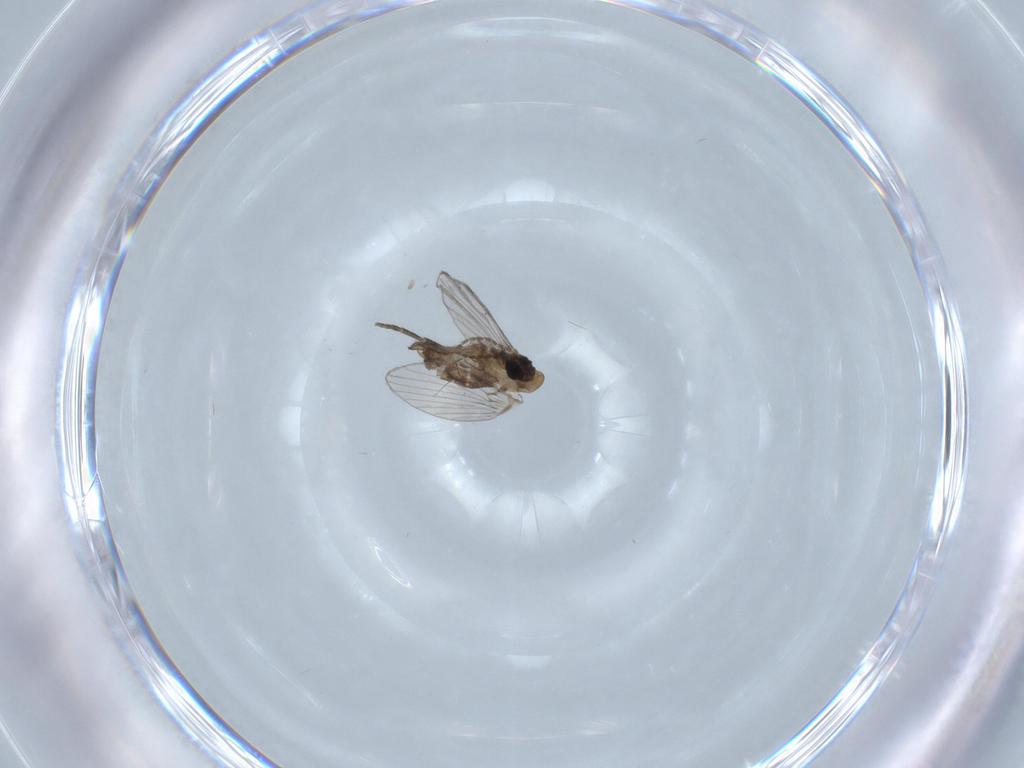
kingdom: Animalia
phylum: Arthropoda
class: Insecta
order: Diptera
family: Psychodidae
